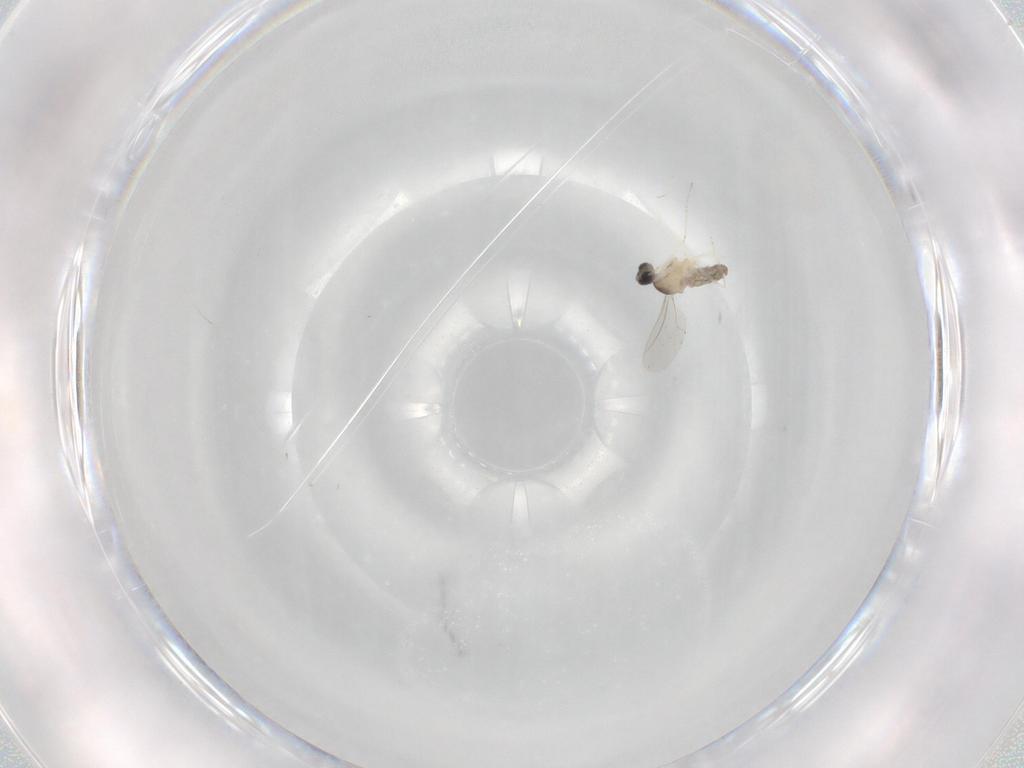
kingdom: Animalia
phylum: Arthropoda
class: Insecta
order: Diptera
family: Cecidomyiidae
